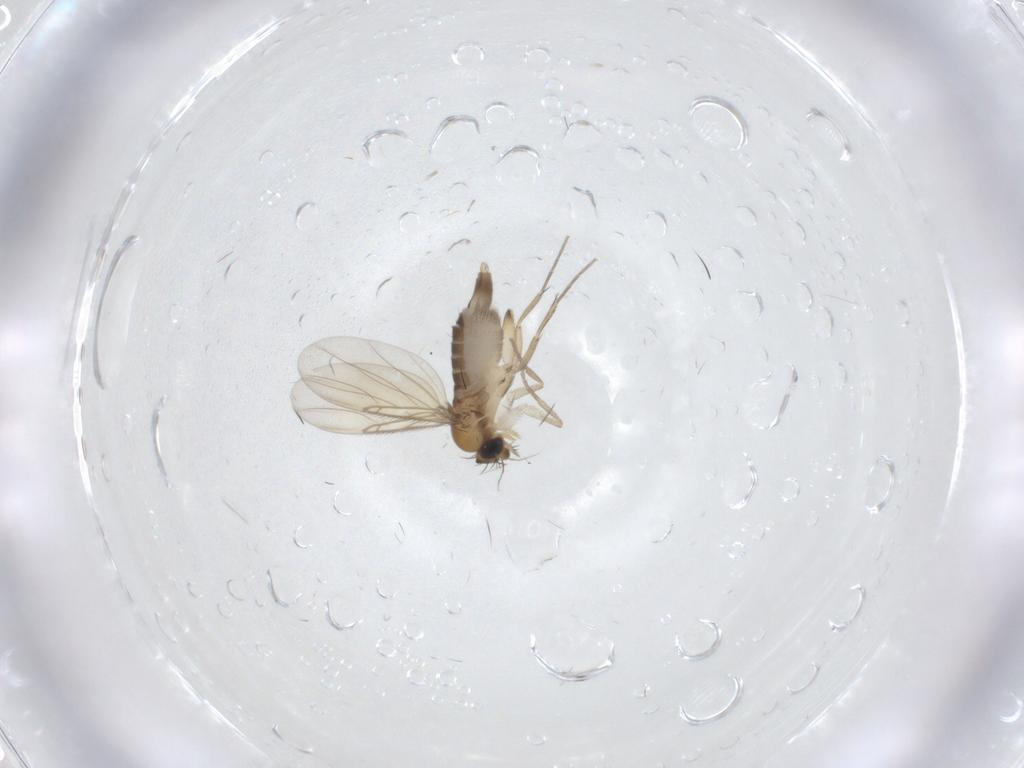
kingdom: Animalia
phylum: Arthropoda
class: Insecta
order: Diptera
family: Phoridae
